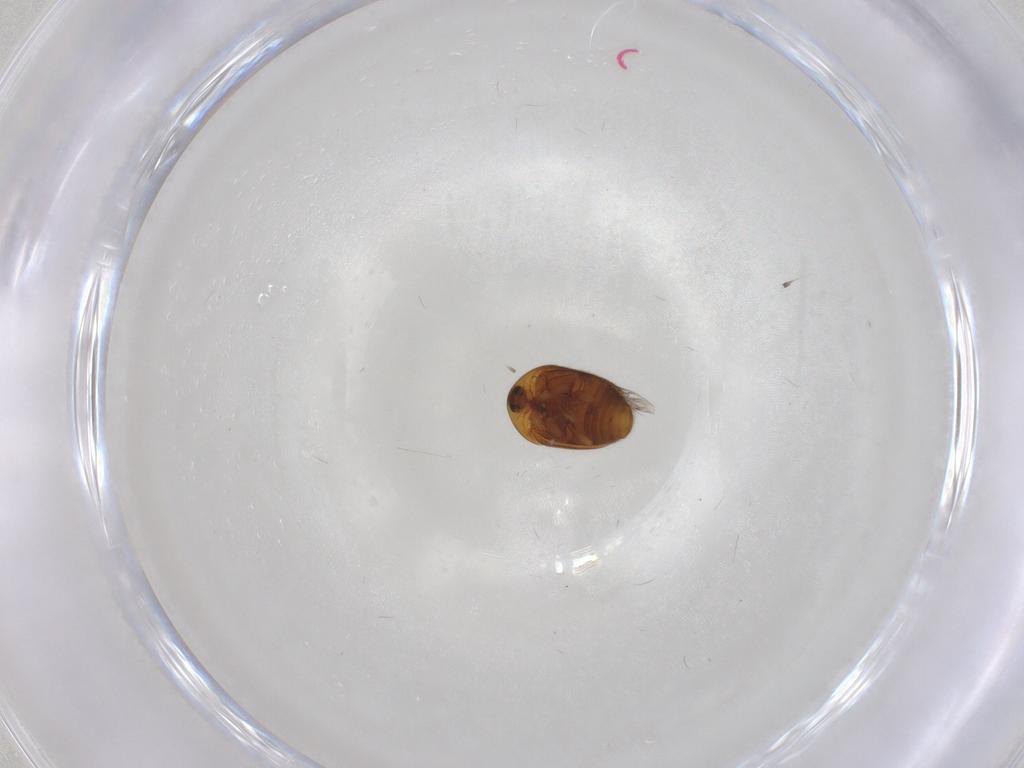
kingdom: Animalia
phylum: Arthropoda
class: Insecta
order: Coleoptera
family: Corylophidae
